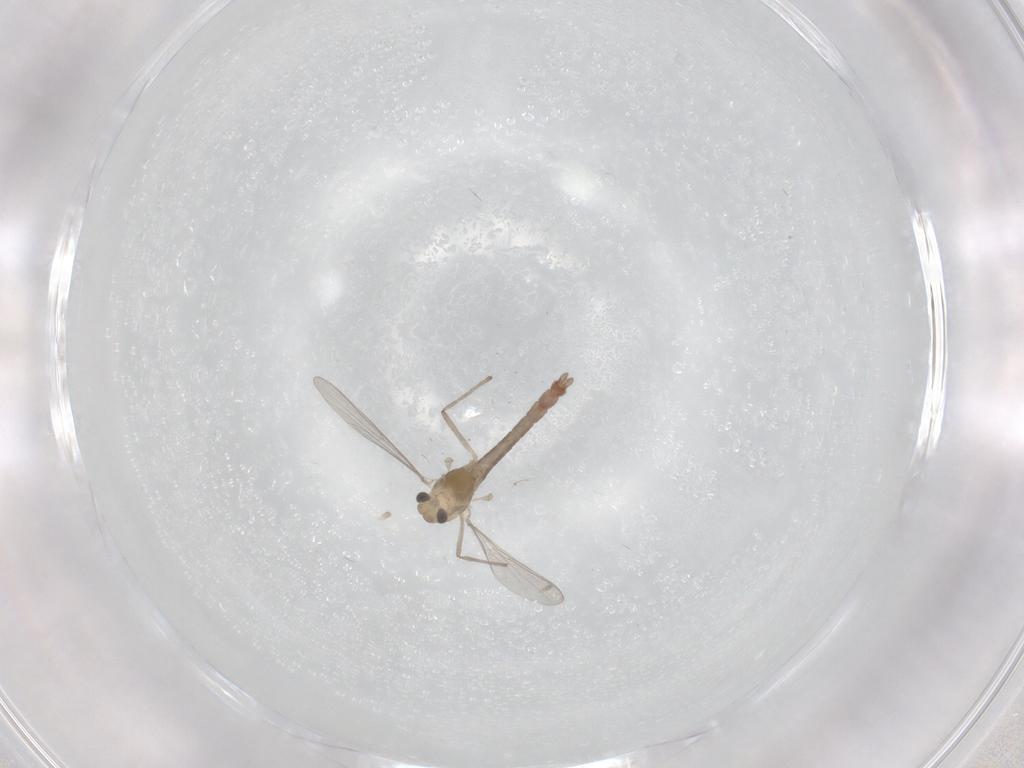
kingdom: Animalia
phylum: Arthropoda
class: Insecta
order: Diptera
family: Chironomidae
